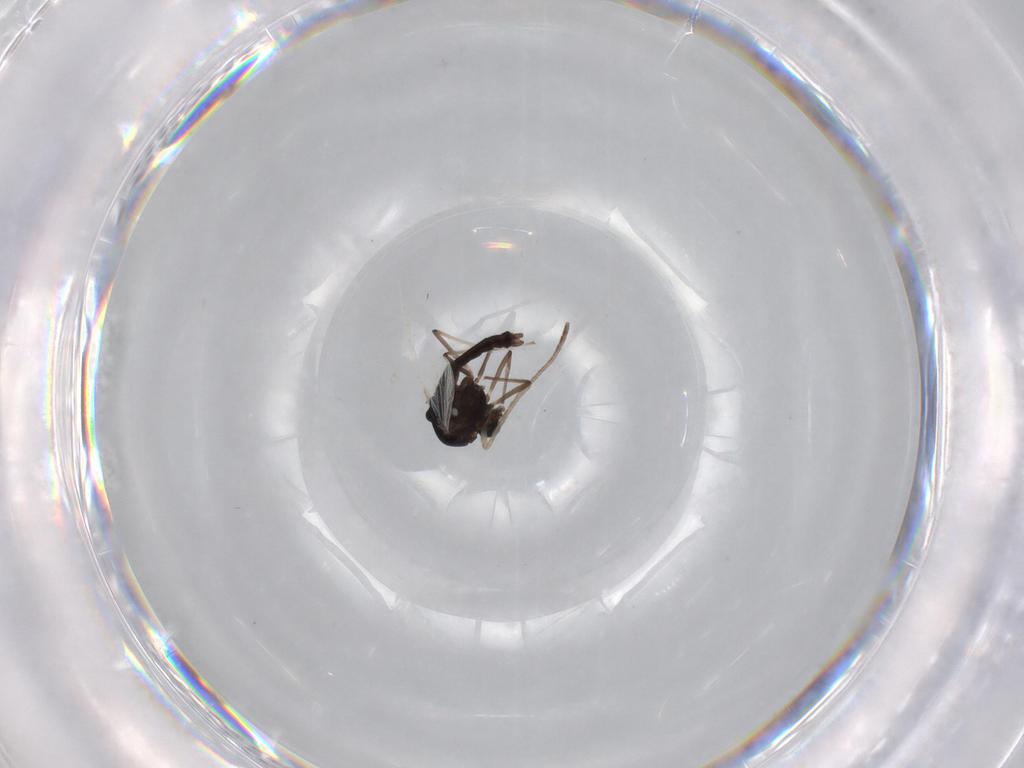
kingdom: Animalia
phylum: Arthropoda
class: Insecta
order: Diptera
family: Chironomidae
